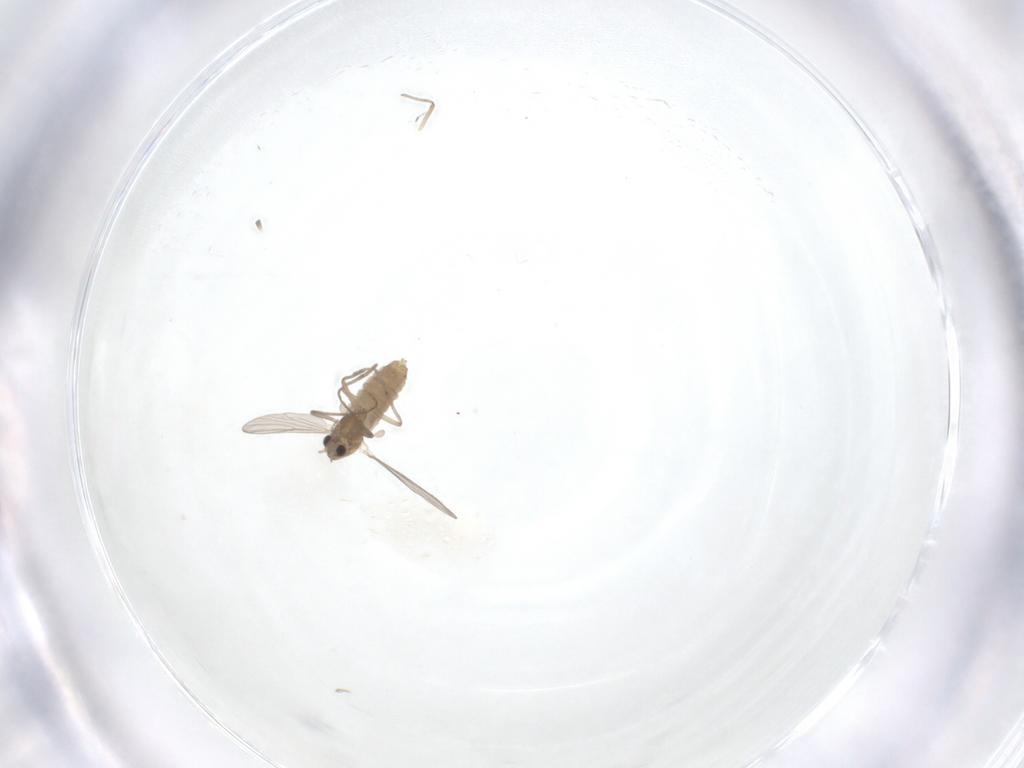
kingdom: Animalia
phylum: Arthropoda
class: Insecta
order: Diptera
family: Chironomidae
